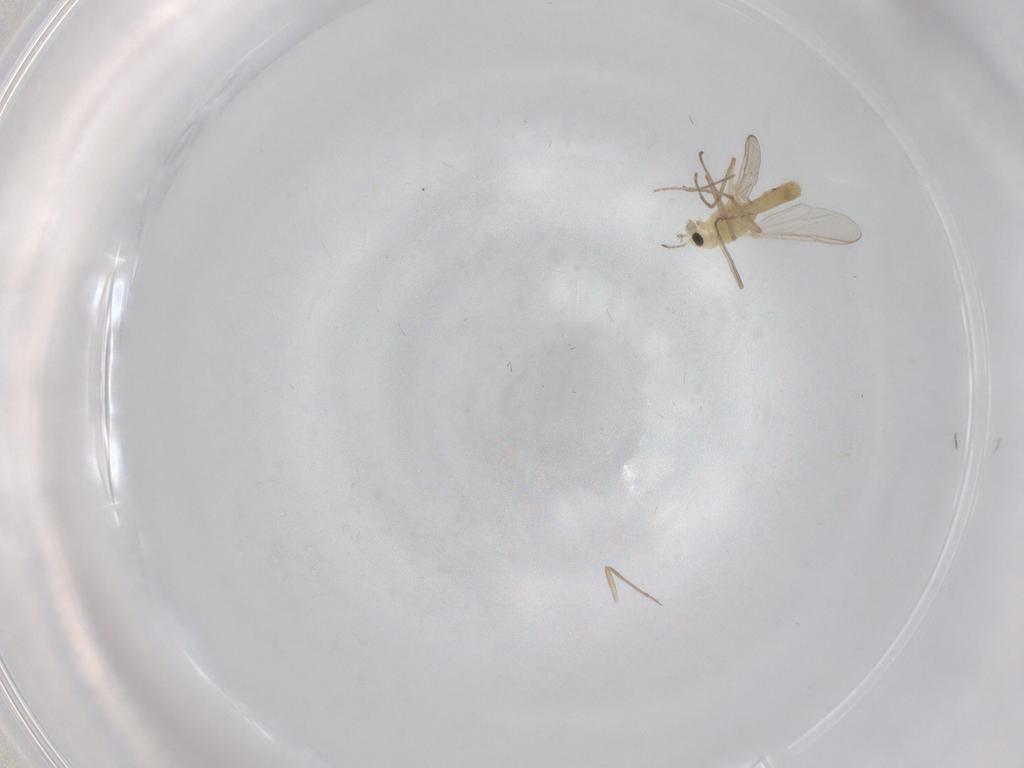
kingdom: Animalia
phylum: Arthropoda
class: Insecta
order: Diptera
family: Chironomidae
